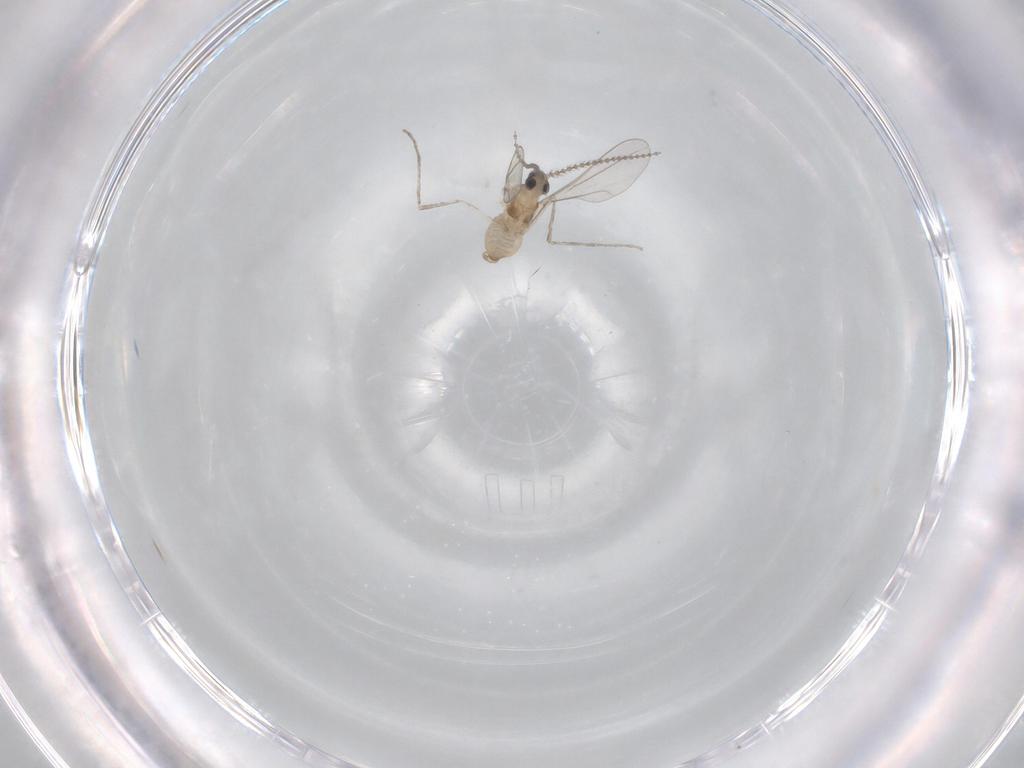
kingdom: Animalia
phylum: Arthropoda
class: Insecta
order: Diptera
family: Cecidomyiidae
